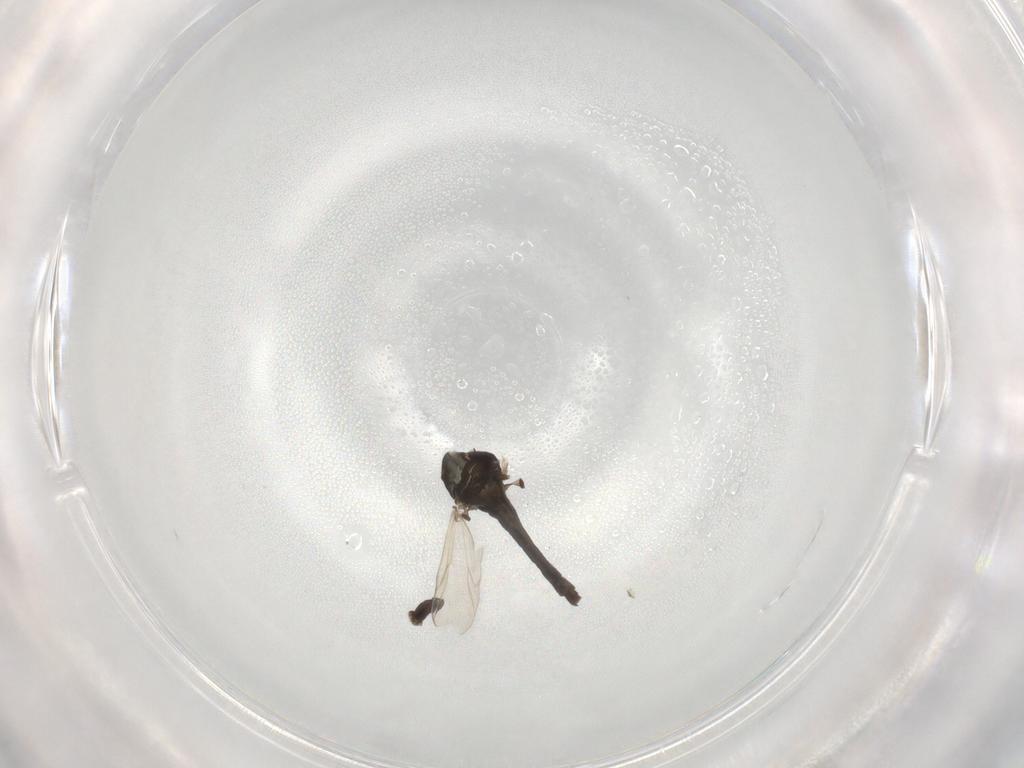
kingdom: Animalia
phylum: Arthropoda
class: Insecta
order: Diptera
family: Chironomidae
